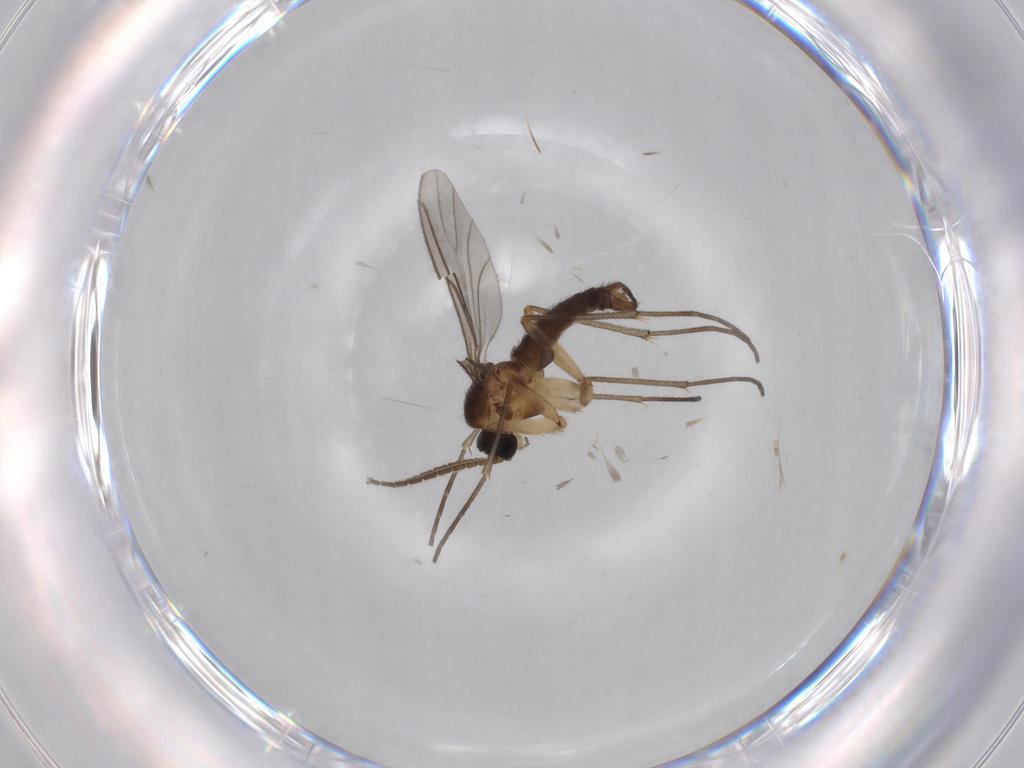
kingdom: Animalia
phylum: Arthropoda
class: Insecta
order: Diptera
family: Sciaridae
